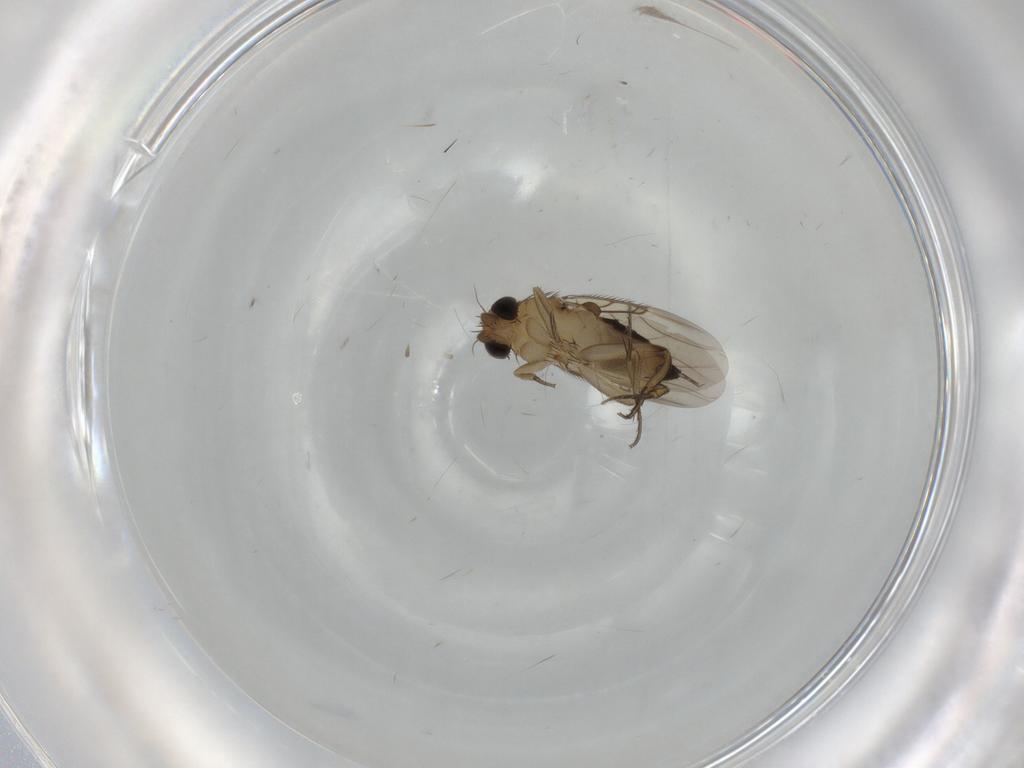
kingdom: Animalia
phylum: Arthropoda
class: Insecta
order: Diptera
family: Phoridae
